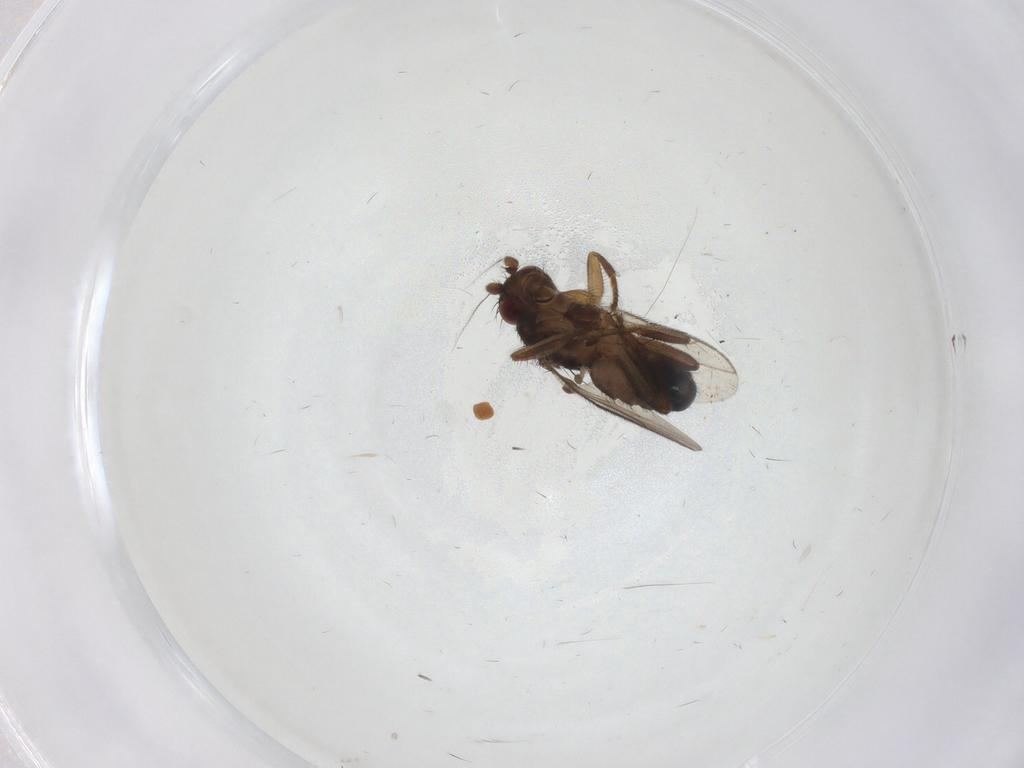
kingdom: Animalia
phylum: Arthropoda
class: Insecta
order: Diptera
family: Sphaeroceridae
